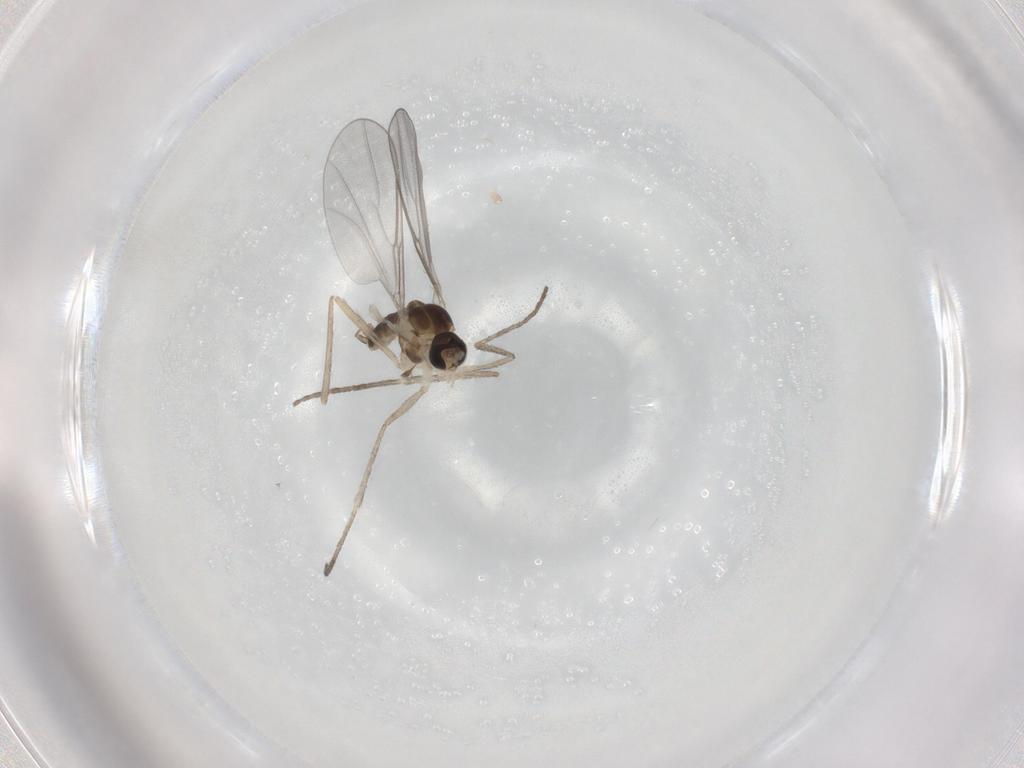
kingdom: Animalia
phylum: Arthropoda
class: Insecta
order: Diptera
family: Cecidomyiidae
